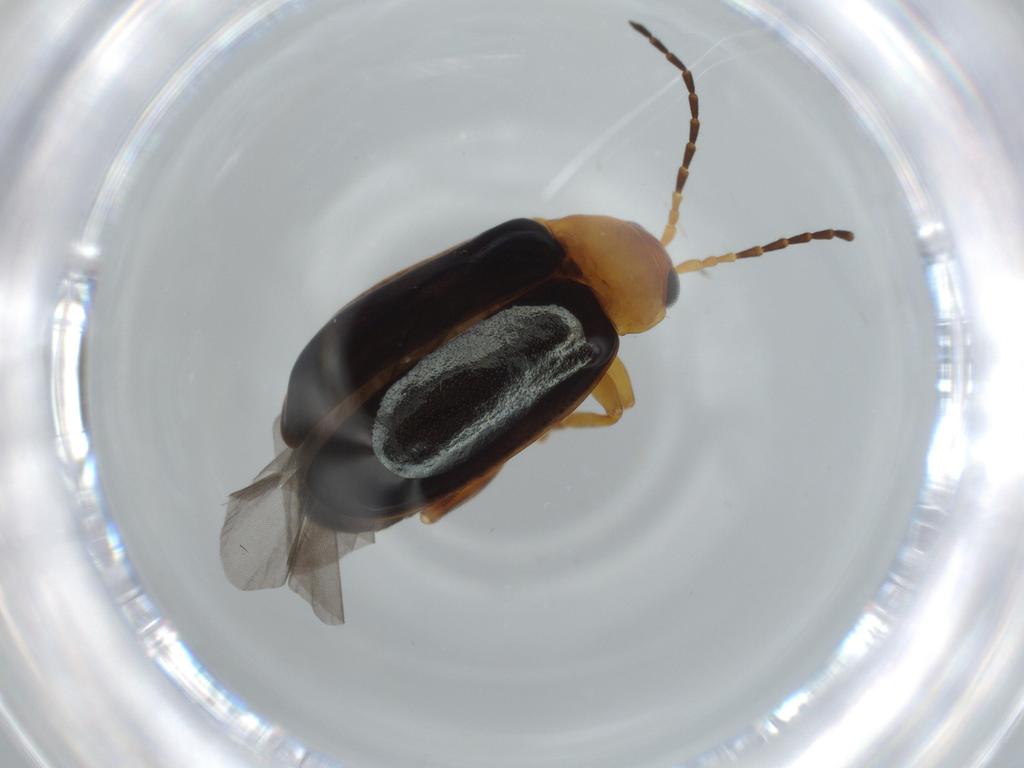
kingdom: Animalia
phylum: Arthropoda
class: Insecta
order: Coleoptera
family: Chrysomelidae
